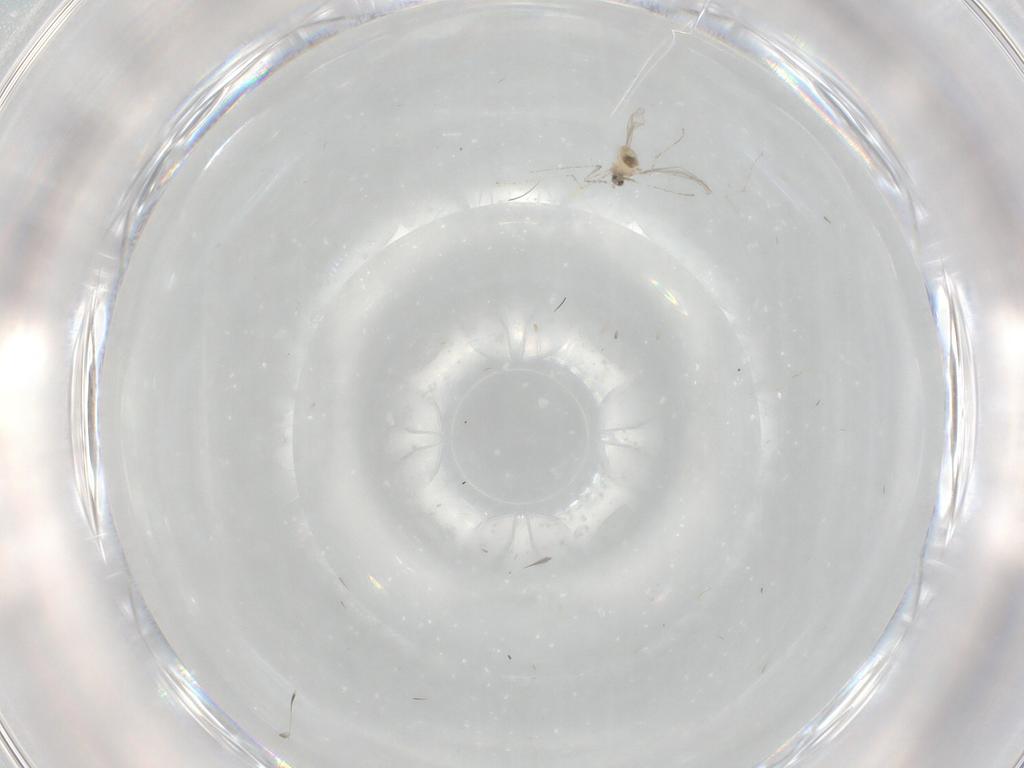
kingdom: Animalia
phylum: Arthropoda
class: Insecta
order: Diptera
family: Cecidomyiidae
